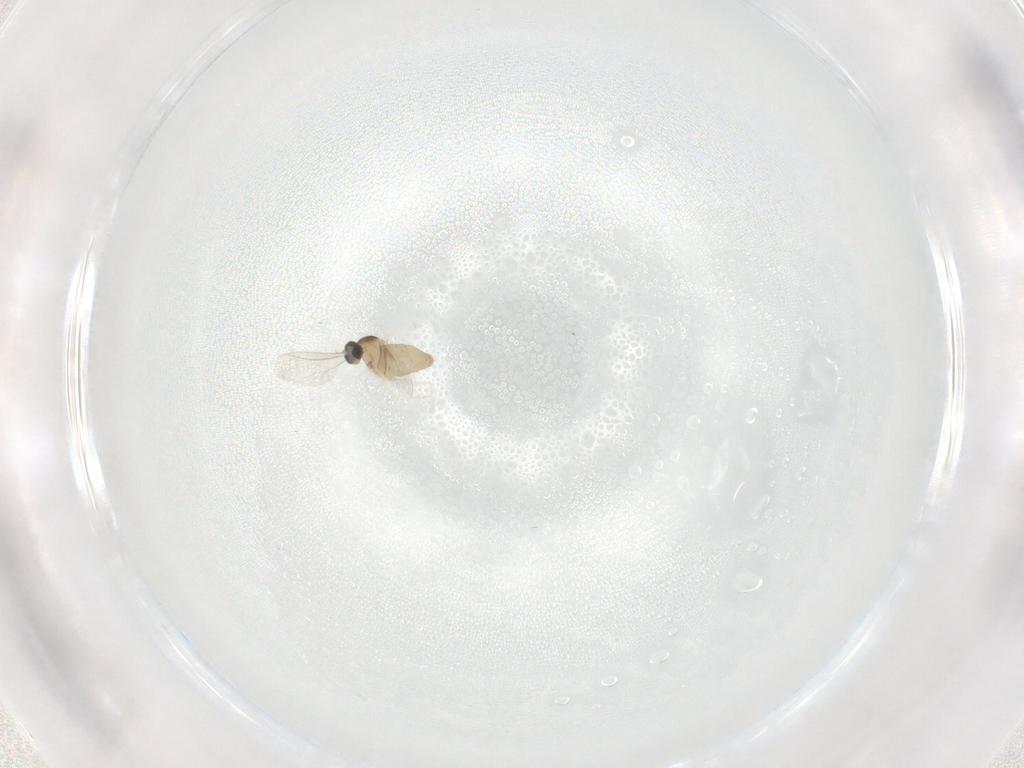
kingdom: Animalia
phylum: Arthropoda
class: Insecta
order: Diptera
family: Cecidomyiidae
